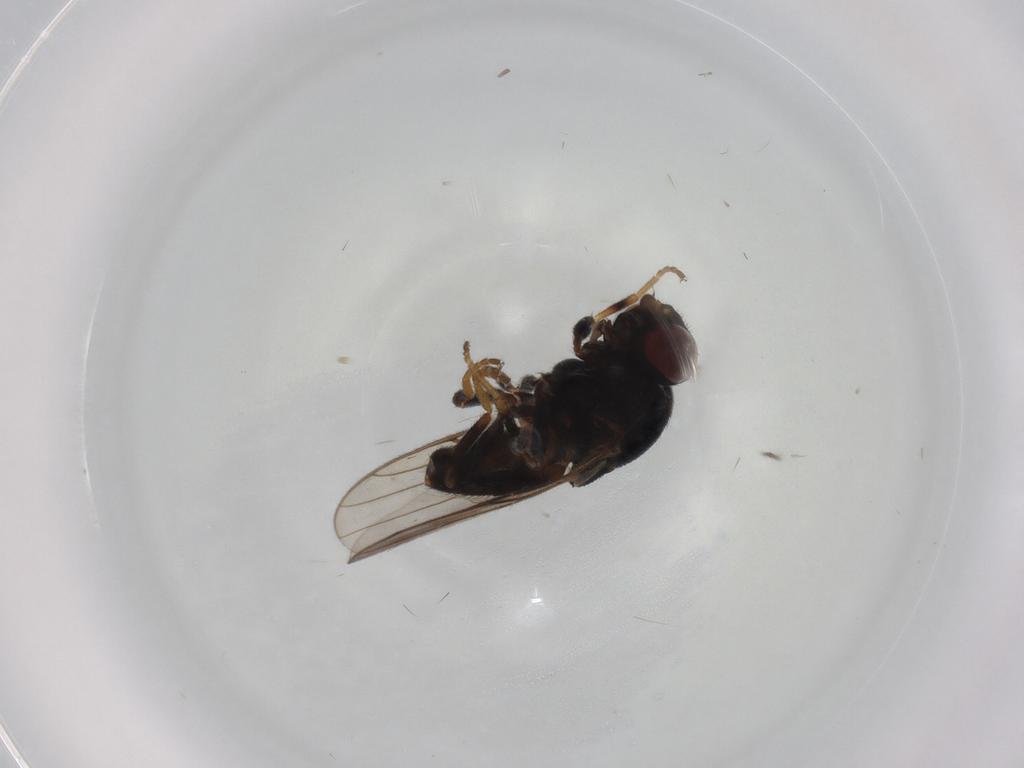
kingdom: Animalia
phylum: Arthropoda
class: Insecta
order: Diptera
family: Chloropidae
